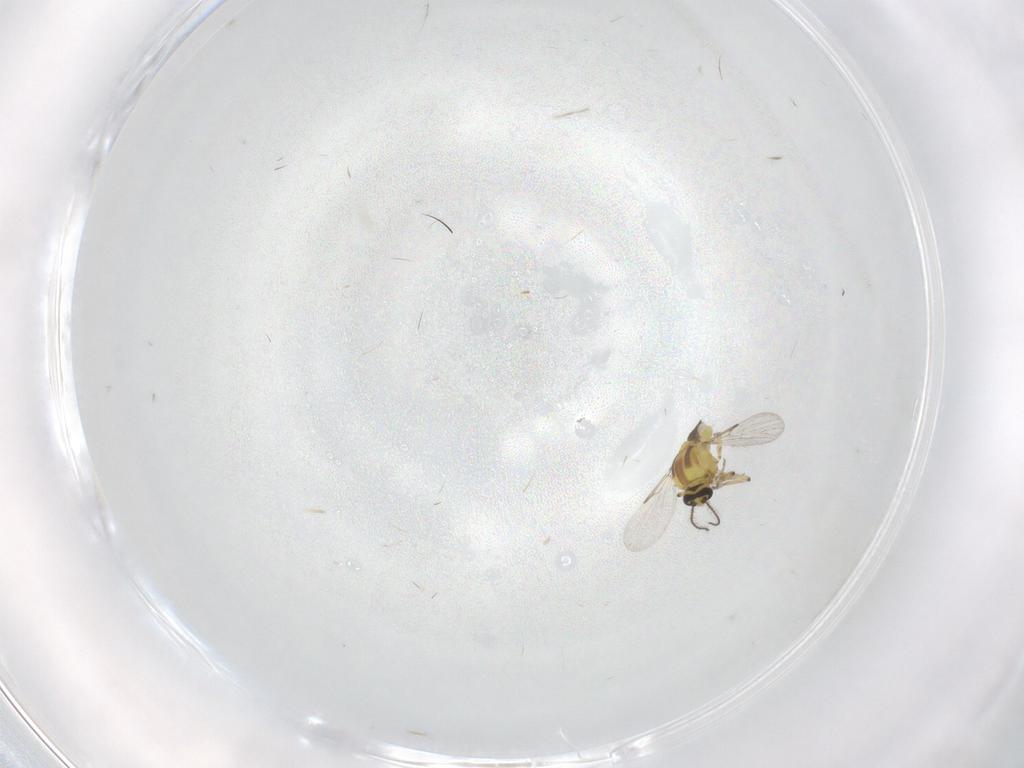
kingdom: Animalia
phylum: Arthropoda
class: Insecta
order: Diptera
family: Ceratopogonidae
